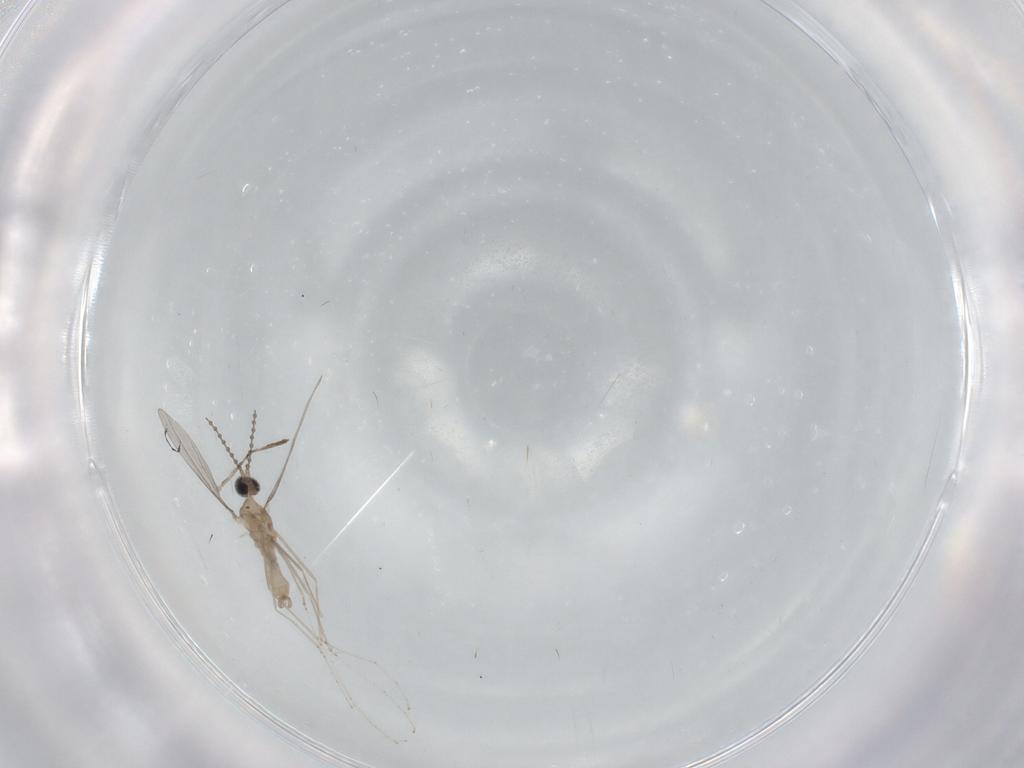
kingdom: Animalia
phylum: Arthropoda
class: Insecta
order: Diptera
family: Cecidomyiidae
